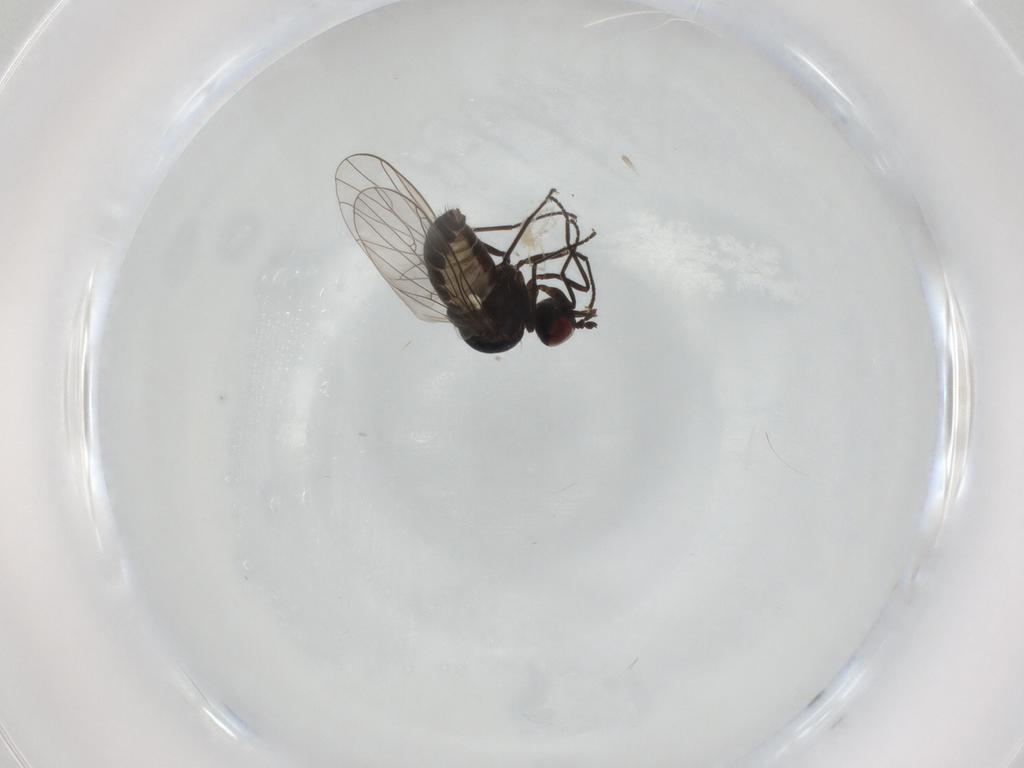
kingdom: Animalia
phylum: Arthropoda
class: Insecta
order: Diptera
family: Bombyliidae
